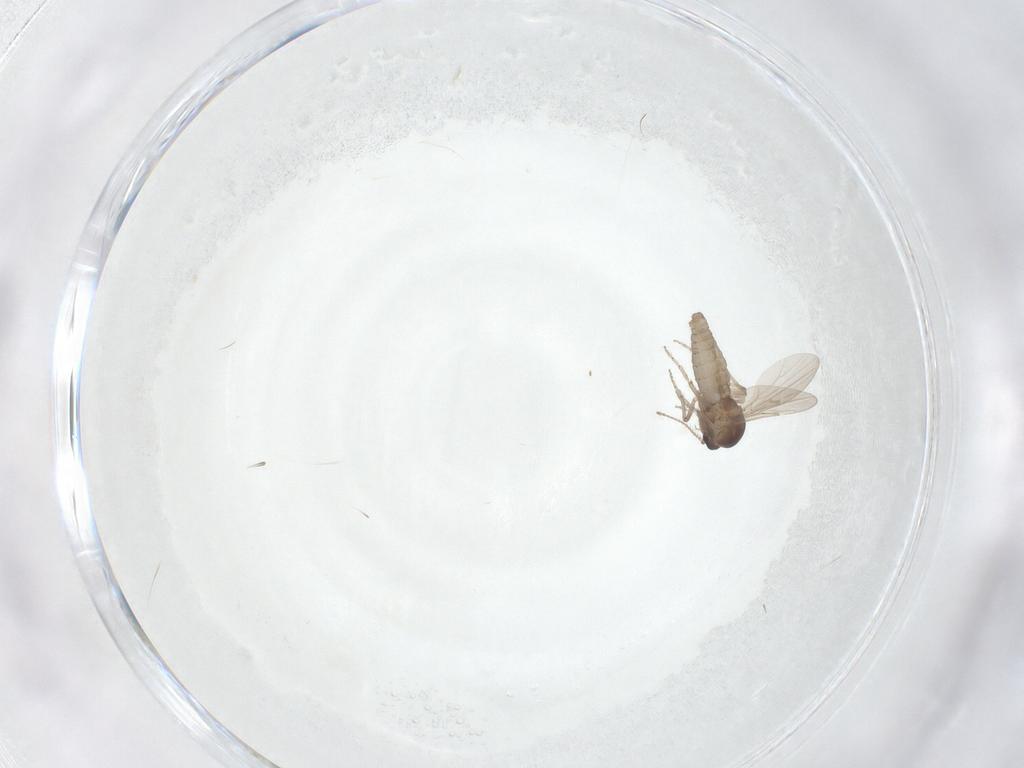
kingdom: Animalia
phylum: Arthropoda
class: Insecta
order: Diptera
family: Ceratopogonidae
